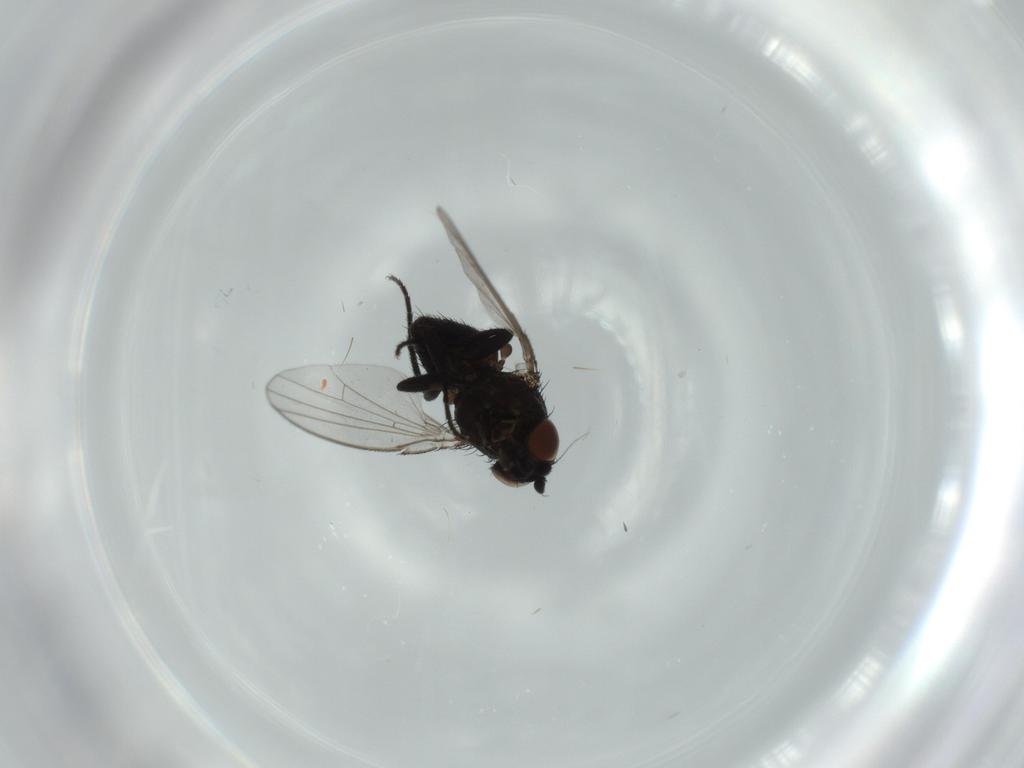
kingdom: Animalia
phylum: Arthropoda
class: Insecta
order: Diptera
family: Milichiidae
